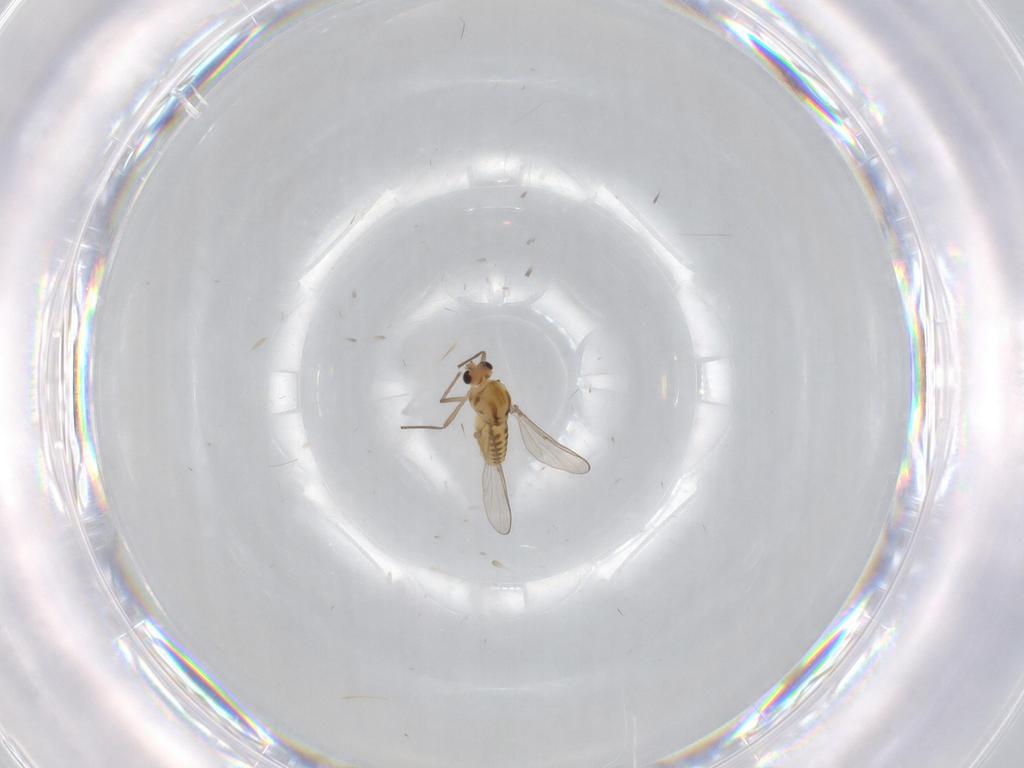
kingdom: Animalia
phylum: Arthropoda
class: Insecta
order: Diptera
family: Chironomidae
